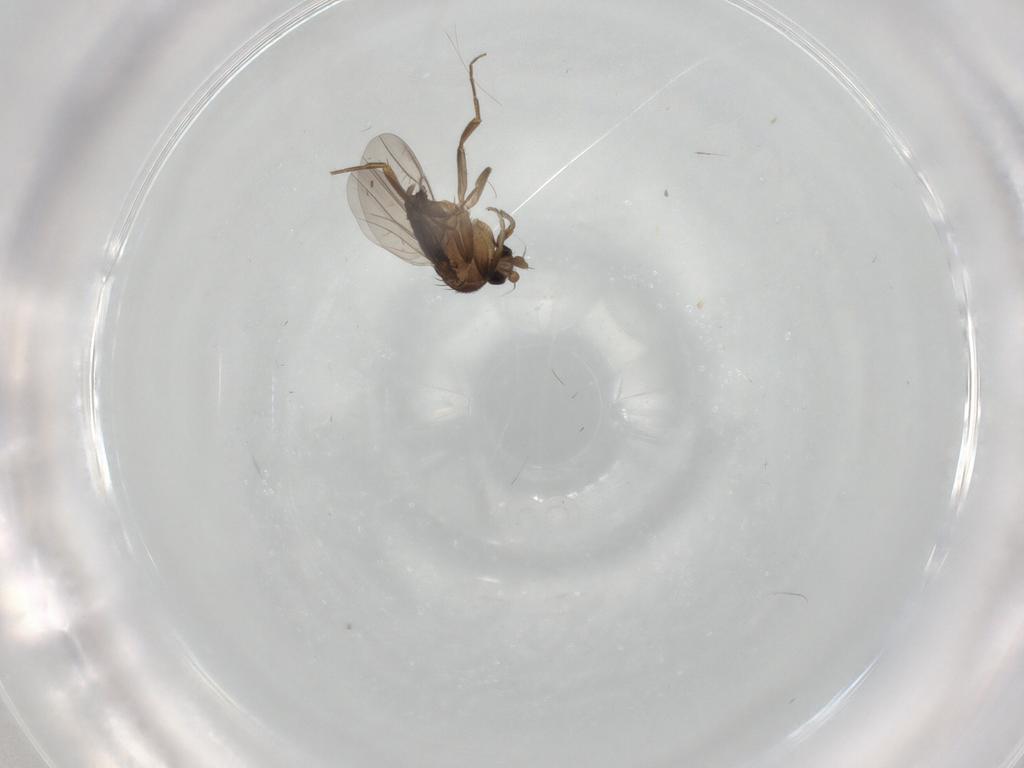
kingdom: Animalia
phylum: Arthropoda
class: Insecta
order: Diptera
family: Phoridae
